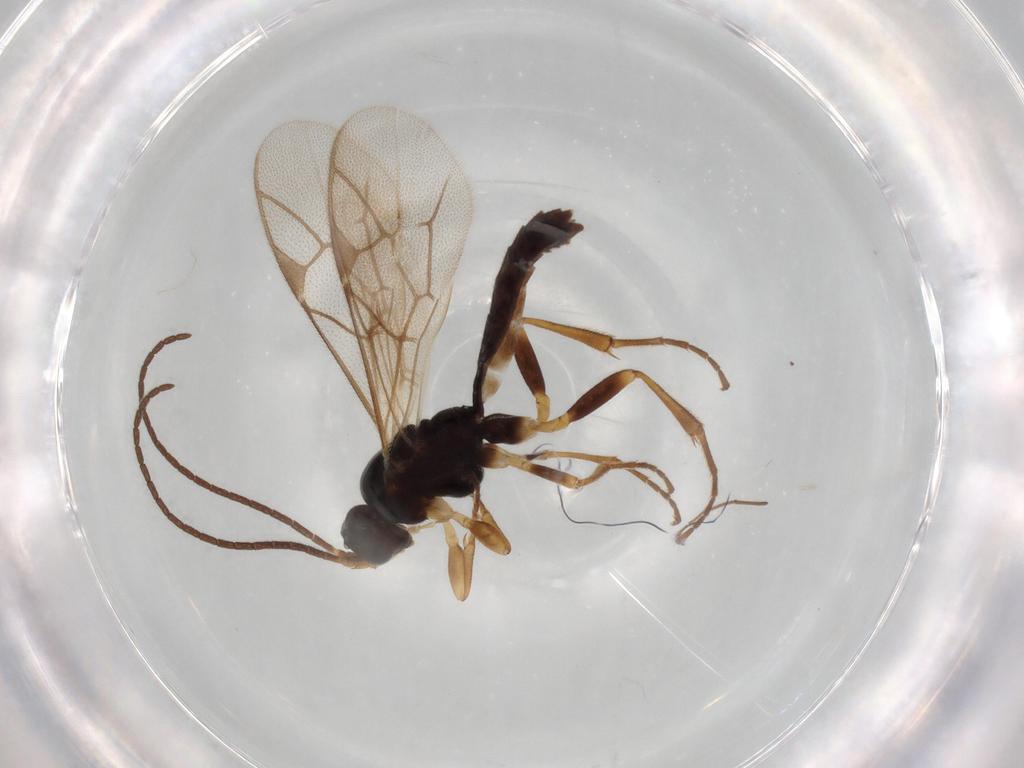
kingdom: Animalia
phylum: Arthropoda
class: Insecta
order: Hymenoptera
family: Ichneumonidae
